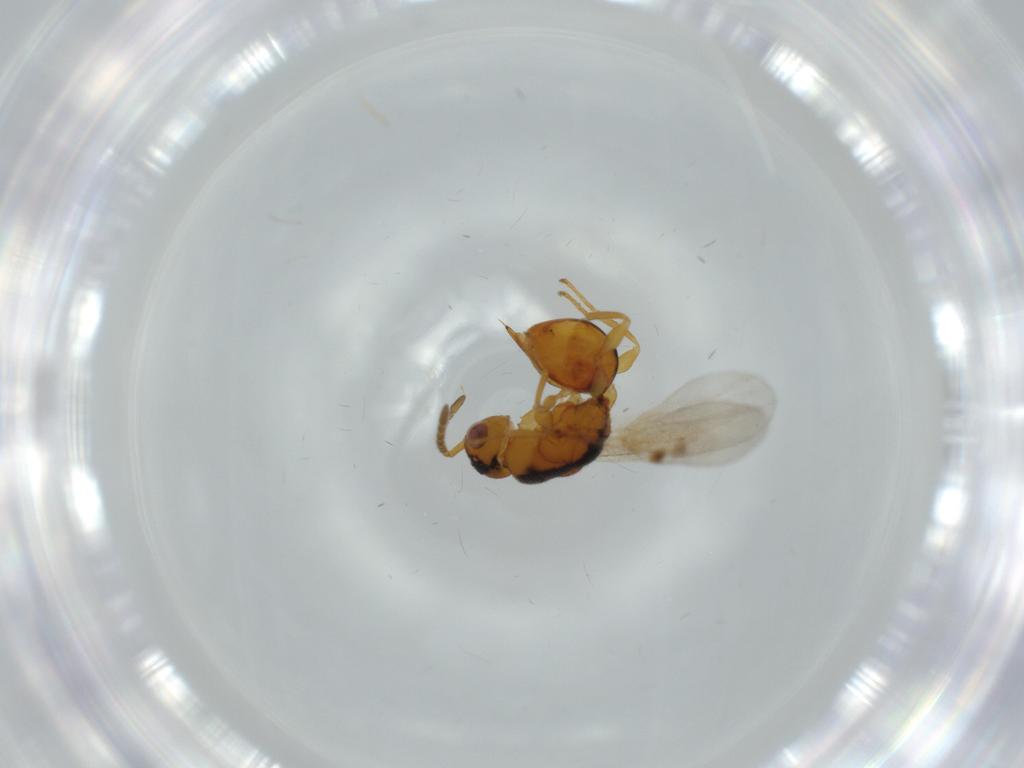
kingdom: Animalia
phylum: Arthropoda
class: Insecta
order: Hymenoptera
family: Eurytomidae
